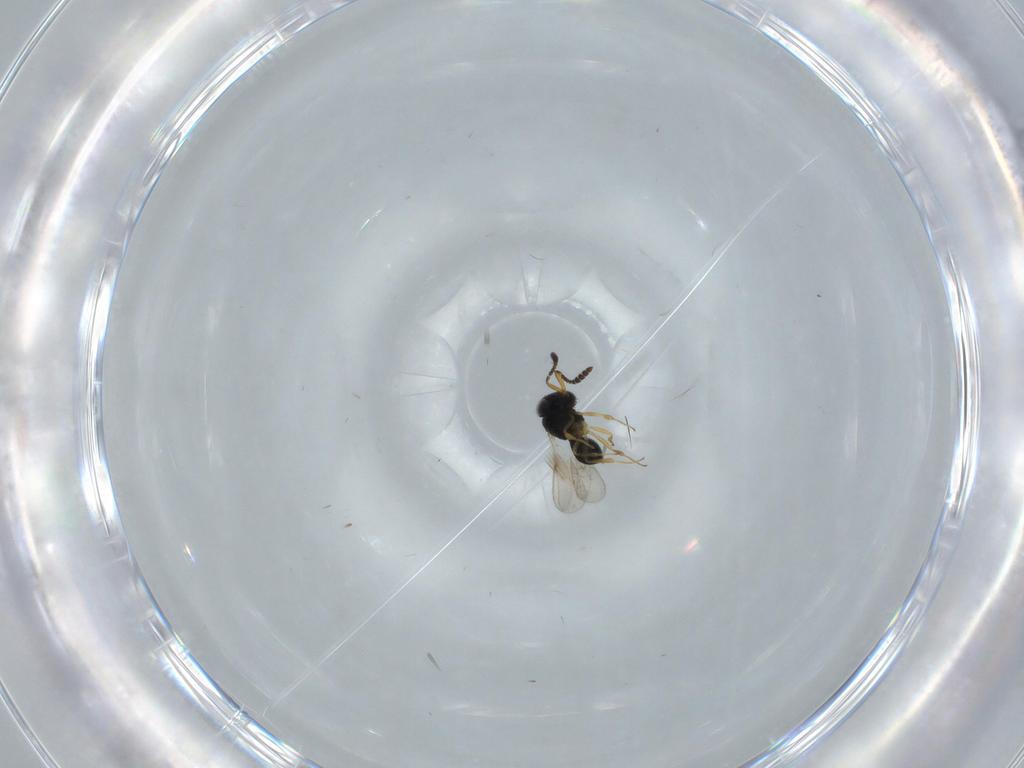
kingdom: Animalia
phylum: Arthropoda
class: Insecta
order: Hymenoptera
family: Scelionidae
